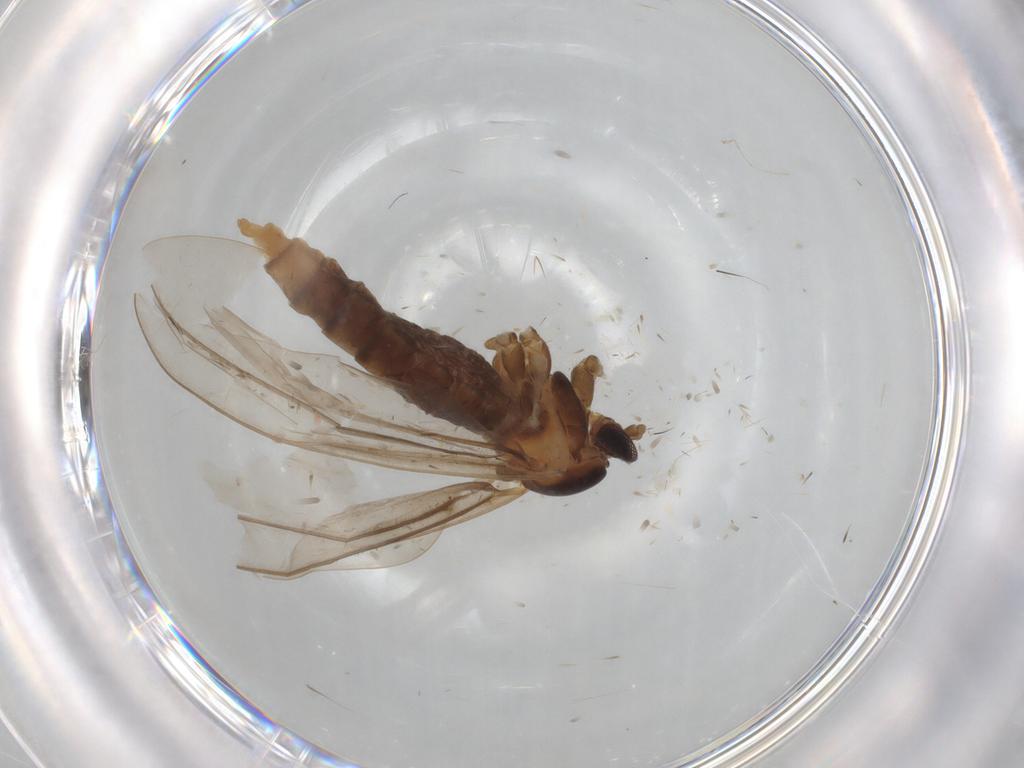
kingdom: Animalia
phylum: Arthropoda
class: Insecta
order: Diptera
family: Cecidomyiidae
